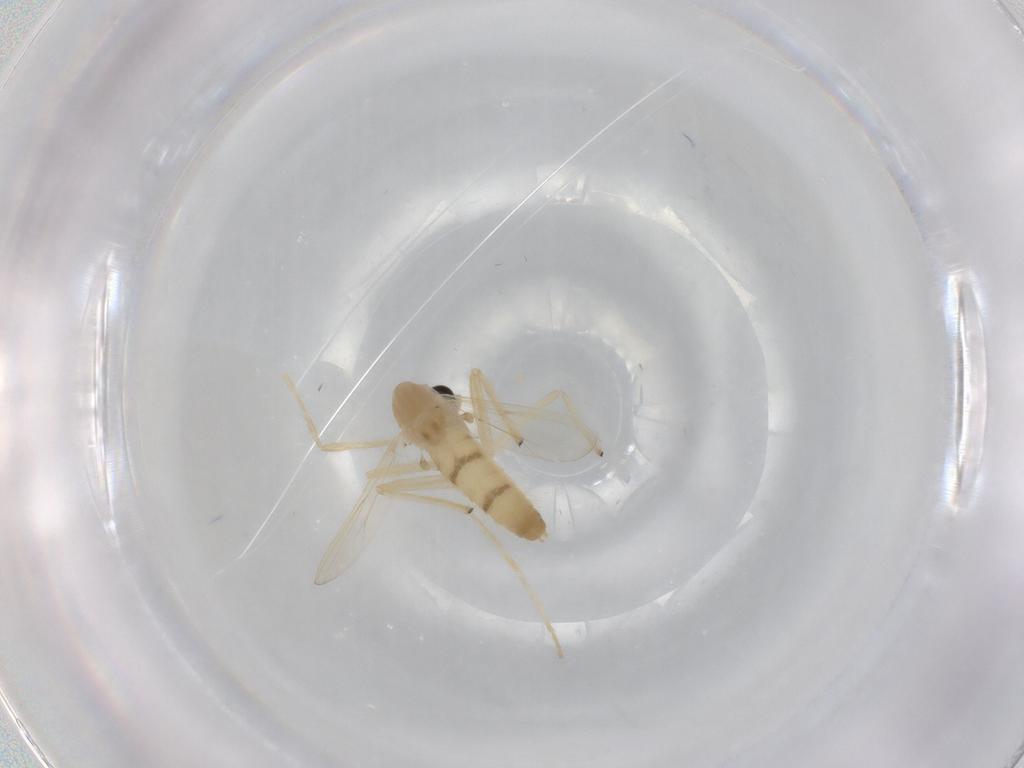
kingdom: Animalia
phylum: Arthropoda
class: Insecta
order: Diptera
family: Chironomidae
